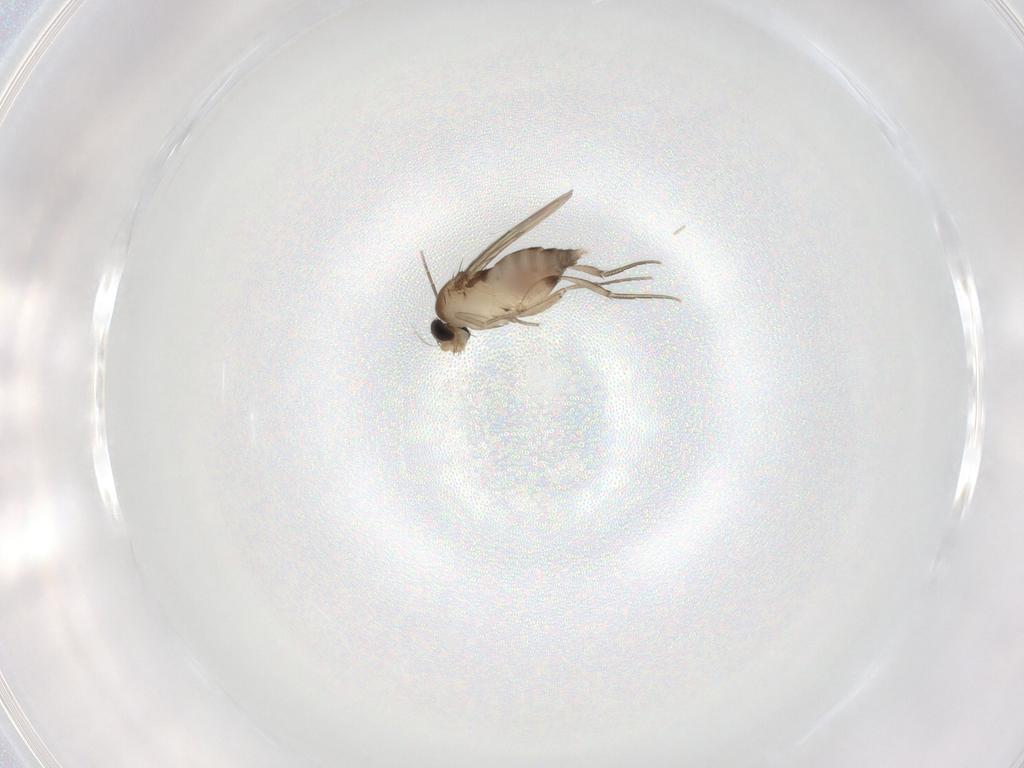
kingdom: Animalia
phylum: Arthropoda
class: Insecta
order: Diptera
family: Phoridae
